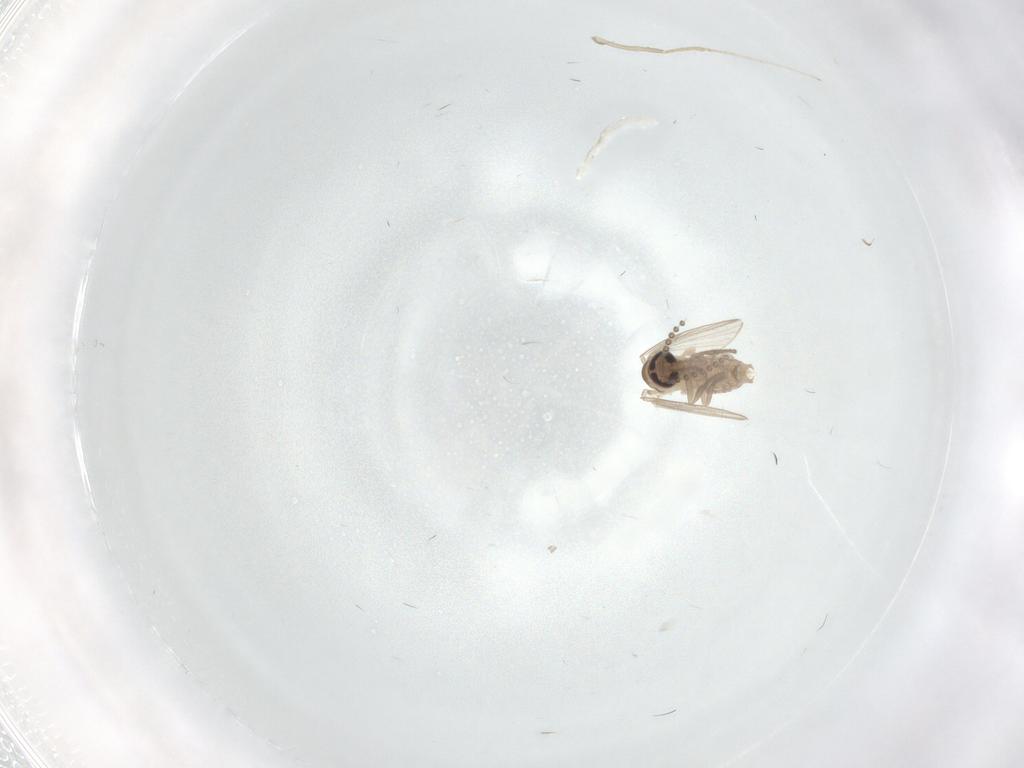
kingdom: Animalia
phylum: Arthropoda
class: Insecta
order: Diptera
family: Psychodidae
